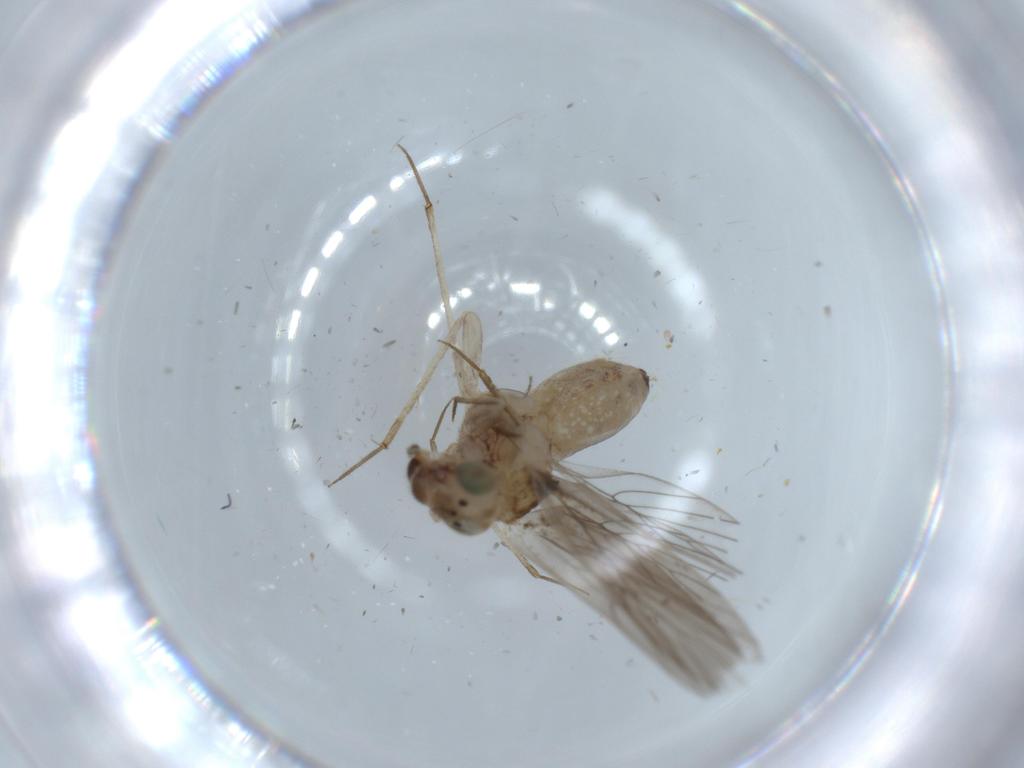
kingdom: Animalia
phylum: Arthropoda
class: Insecta
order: Psocodea
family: Lepidopsocidae
